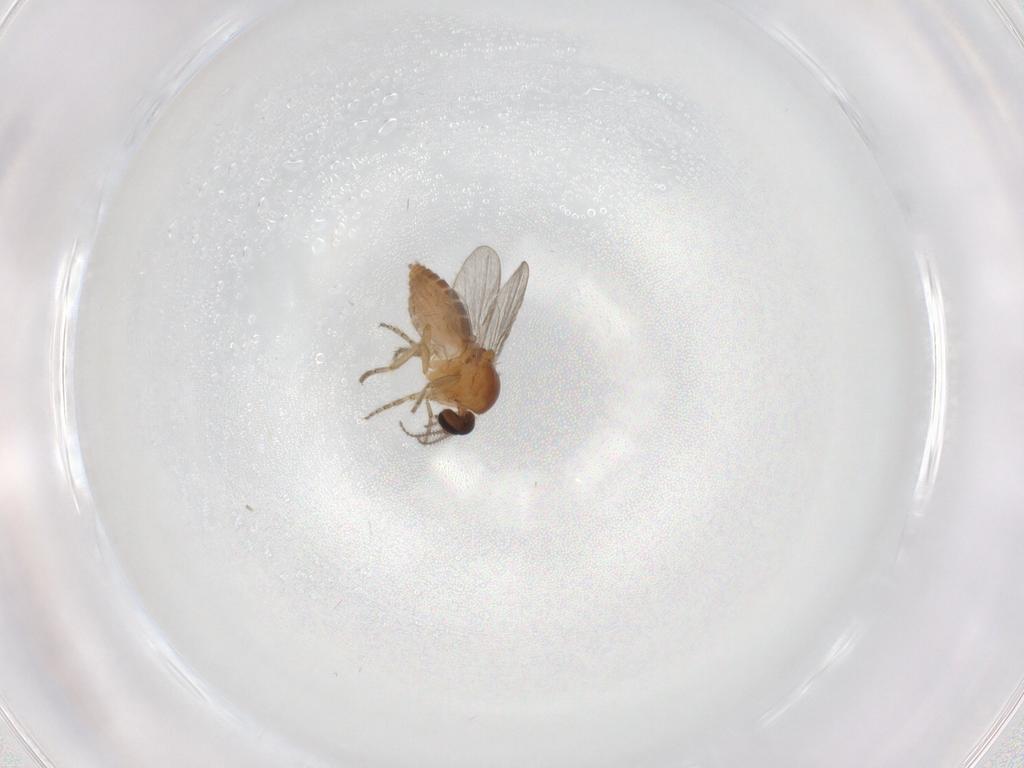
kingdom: Animalia
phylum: Arthropoda
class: Insecta
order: Diptera
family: Ceratopogonidae
